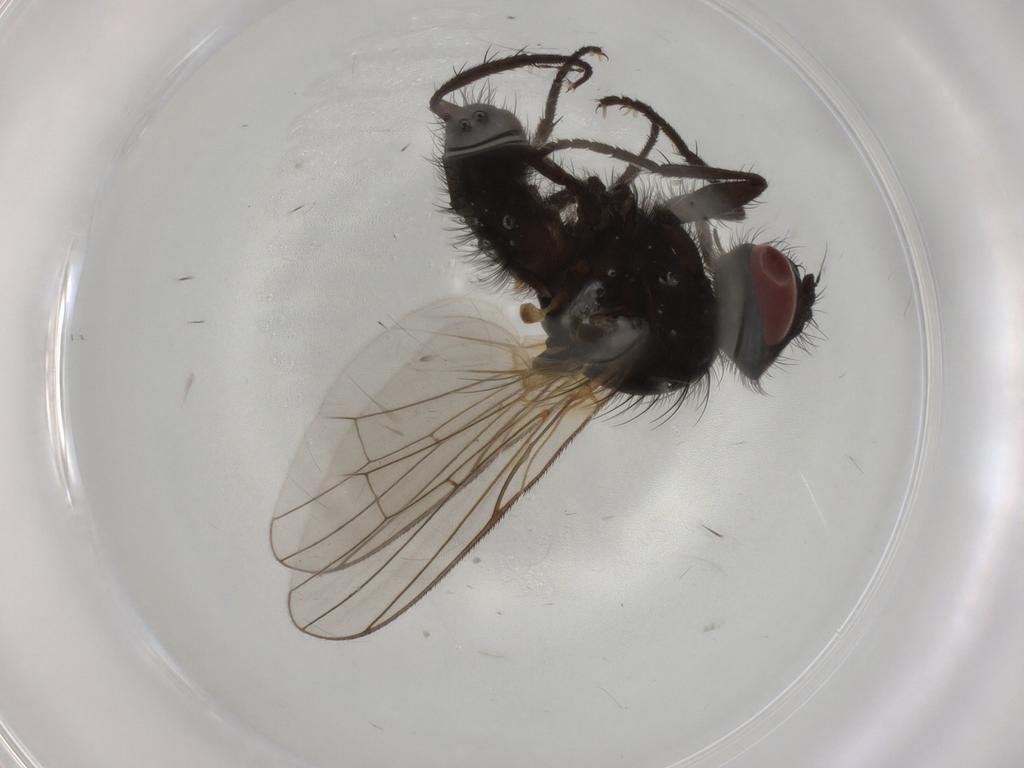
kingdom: Animalia
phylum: Arthropoda
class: Insecta
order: Diptera
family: Anthomyiidae
